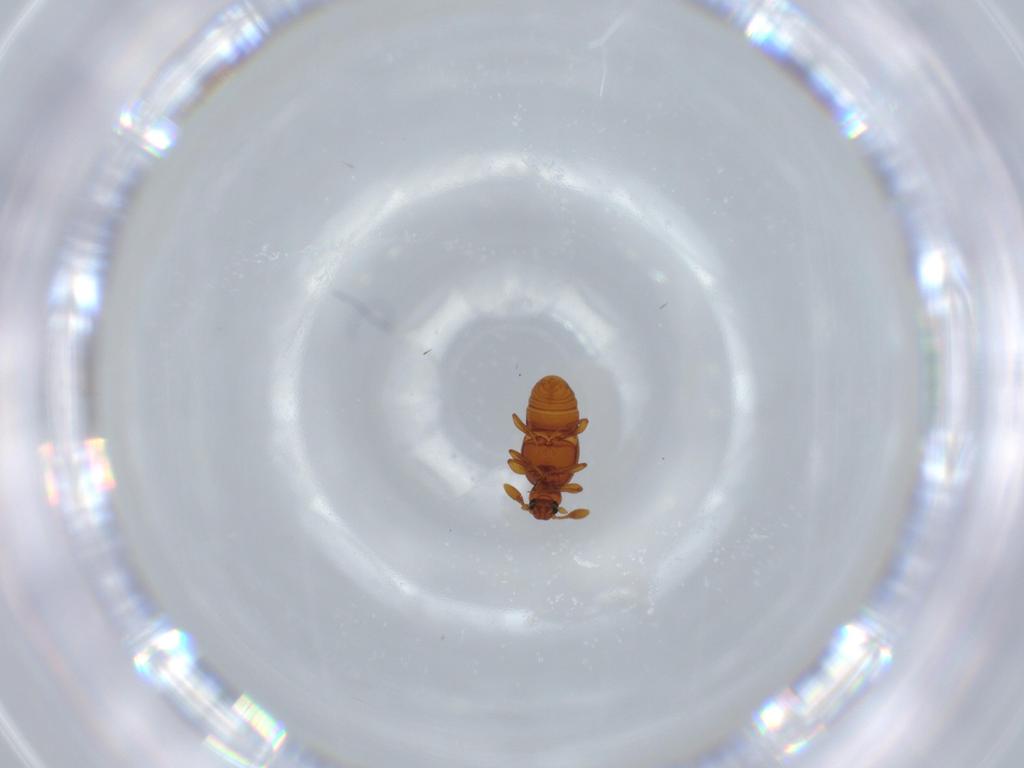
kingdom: Animalia
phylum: Arthropoda
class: Insecta
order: Coleoptera
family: Staphylinidae
